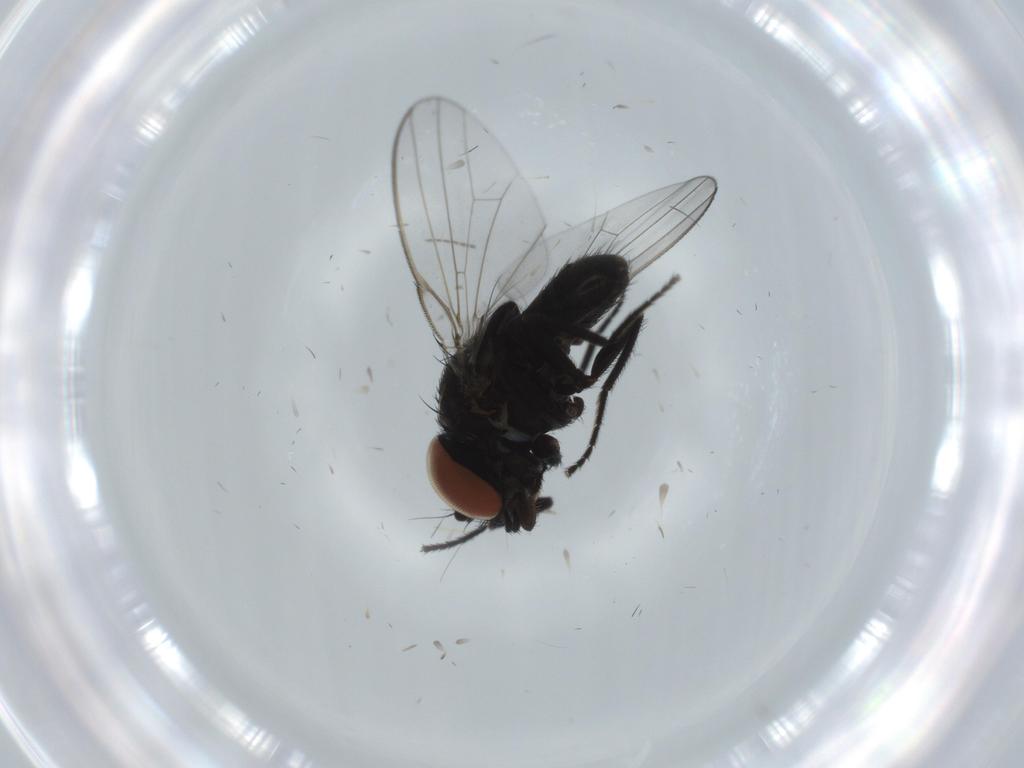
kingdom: Animalia
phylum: Arthropoda
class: Insecta
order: Diptera
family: Milichiidae
